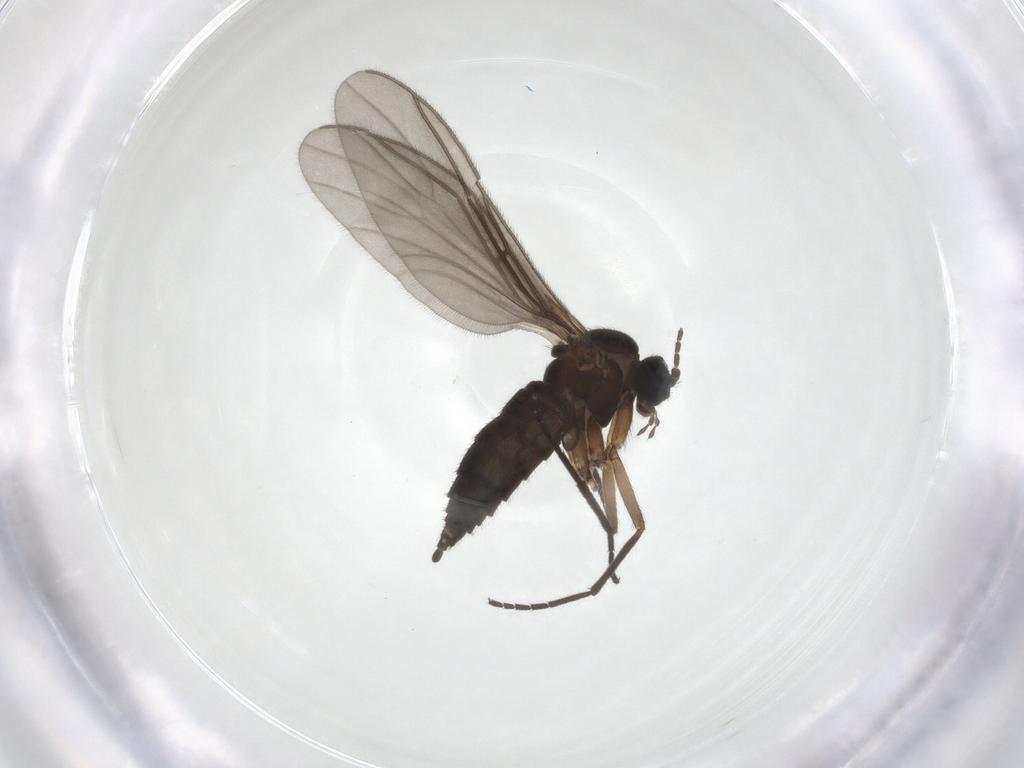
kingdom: Animalia
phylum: Arthropoda
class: Insecta
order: Diptera
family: Sciaridae
